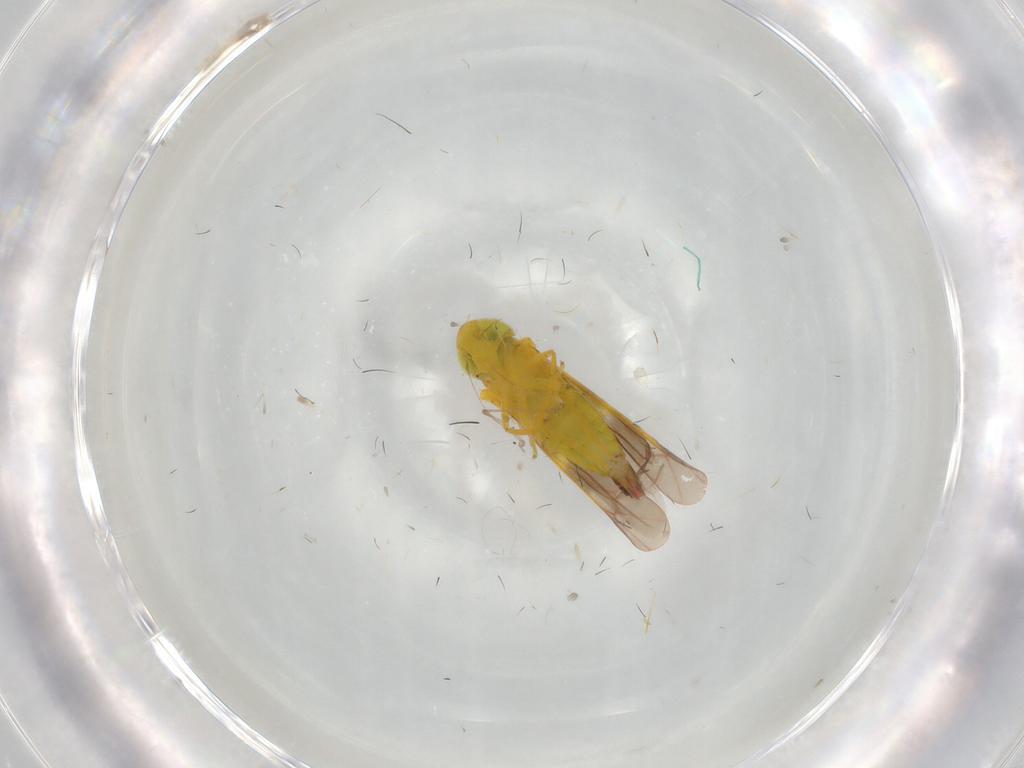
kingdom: Animalia
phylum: Arthropoda
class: Insecta
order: Hemiptera
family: Cicadellidae
